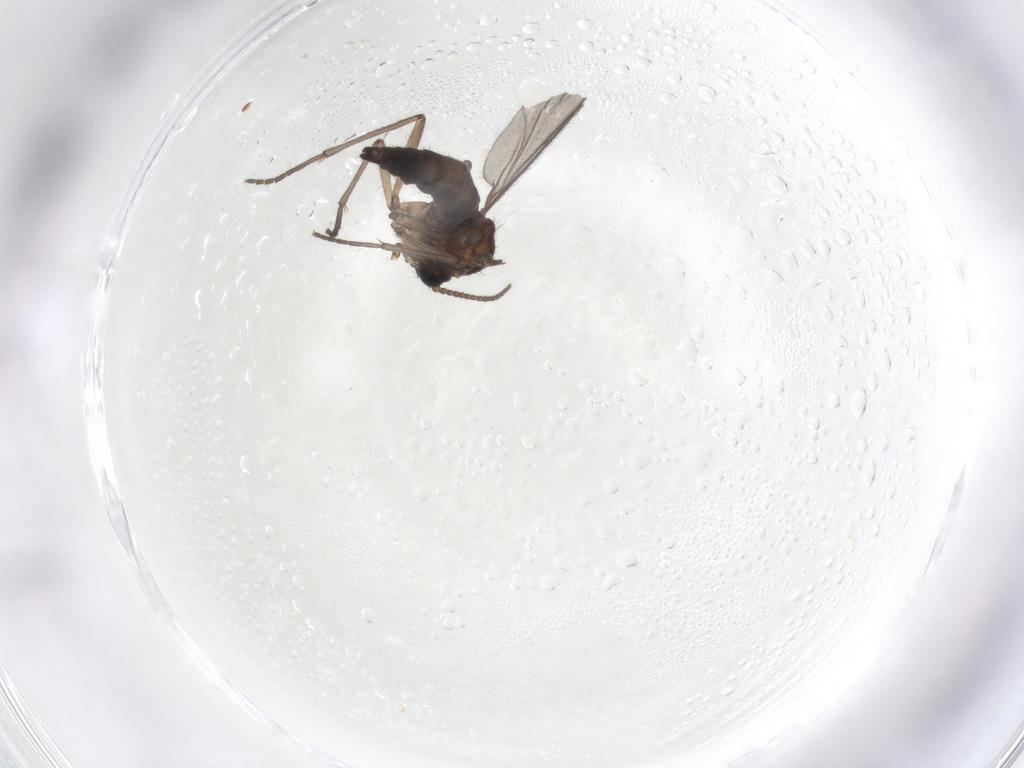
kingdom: Animalia
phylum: Arthropoda
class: Insecta
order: Diptera
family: Sciaridae
